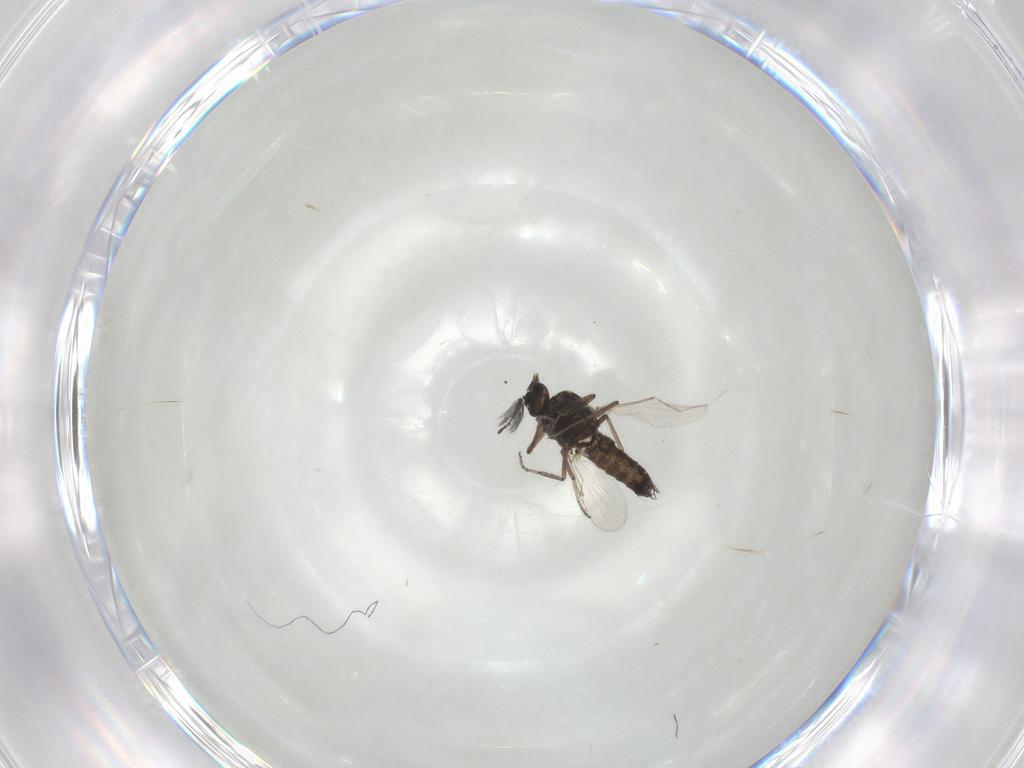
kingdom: Animalia
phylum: Arthropoda
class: Insecta
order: Diptera
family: Ceratopogonidae
